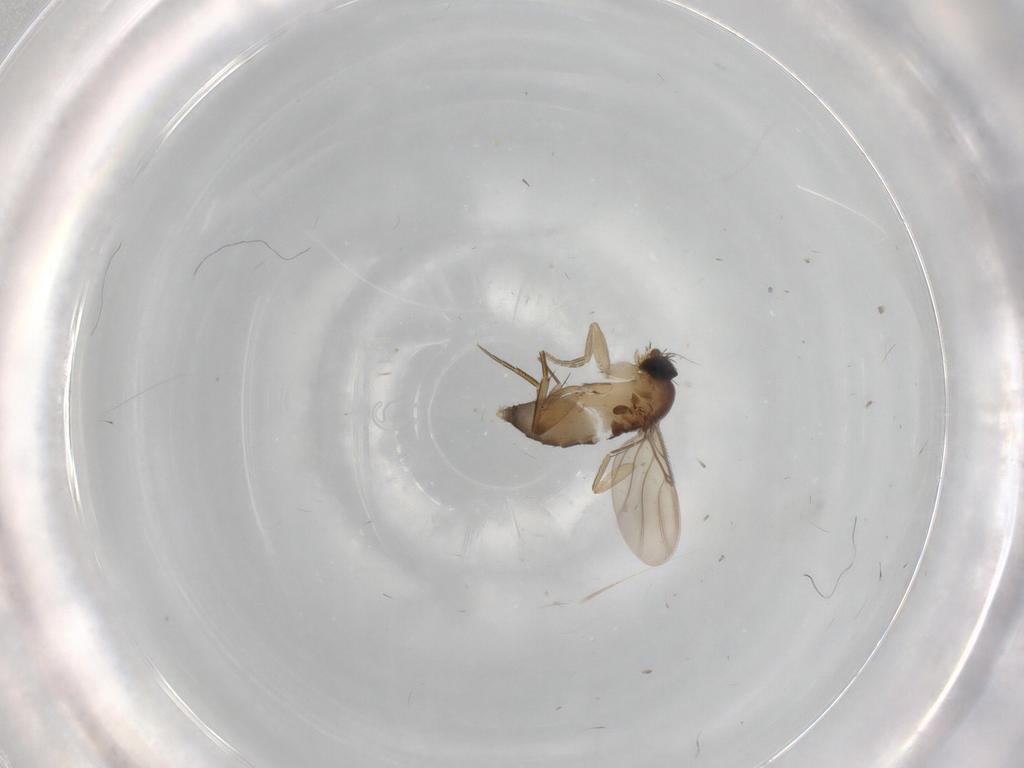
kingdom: Animalia
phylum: Arthropoda
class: Insecta
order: Diptera
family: Phoridae
